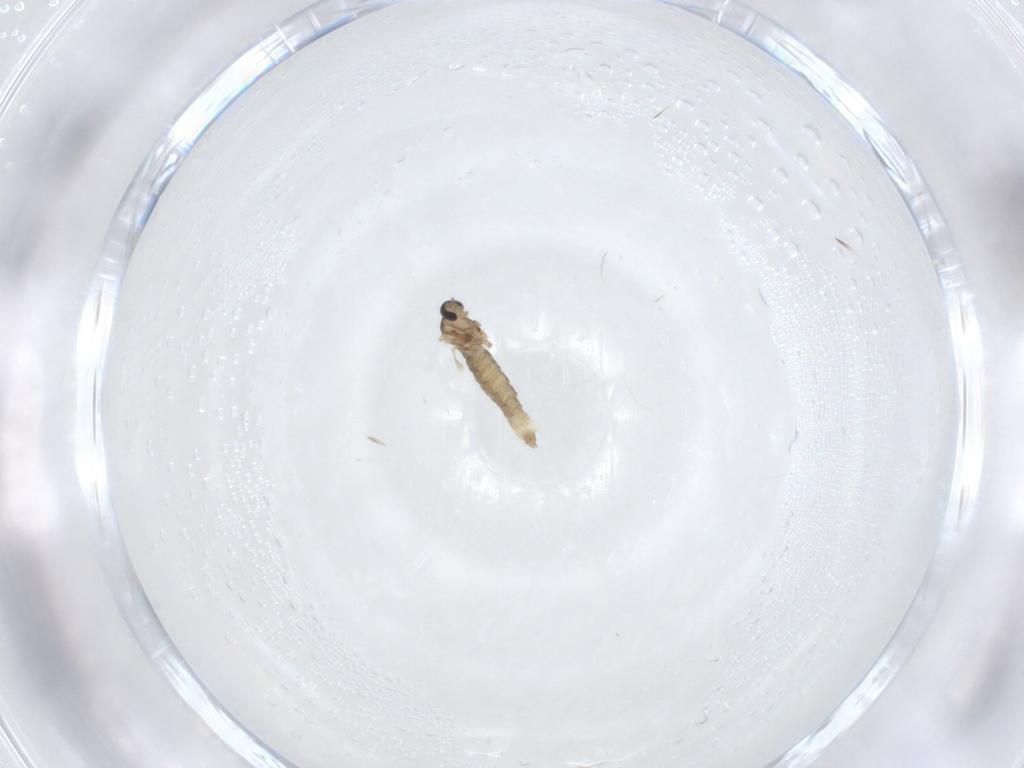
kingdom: Animalia
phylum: Arthropoda
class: Insecta
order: Diptera
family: Cecidomyiidae
